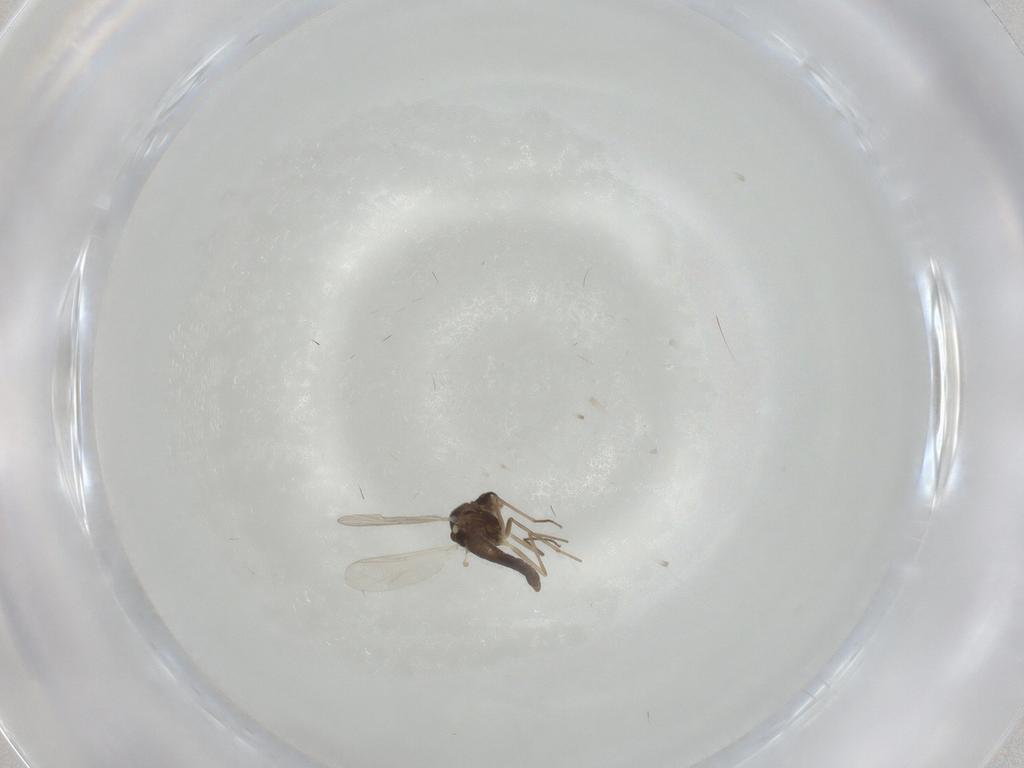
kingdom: Animalia
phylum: Arthropoda
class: Insecta
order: Diptera
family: Chironomidae
